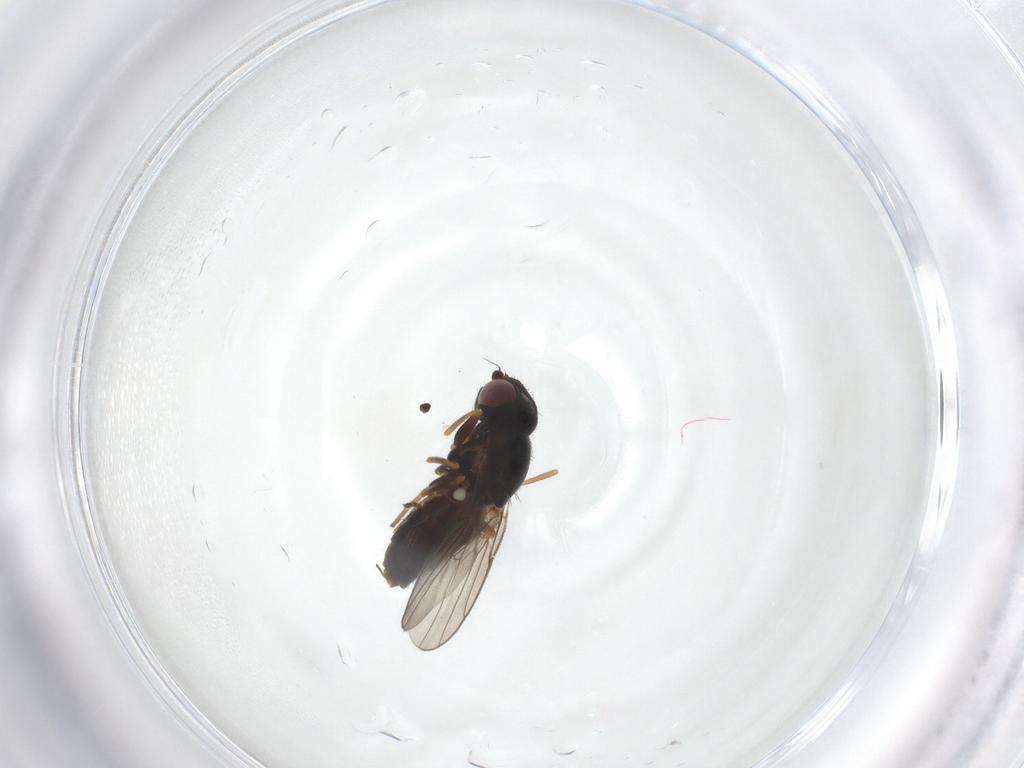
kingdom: Animalia
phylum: Arthropoda
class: Insecta
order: Diptera
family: Chloropidae
